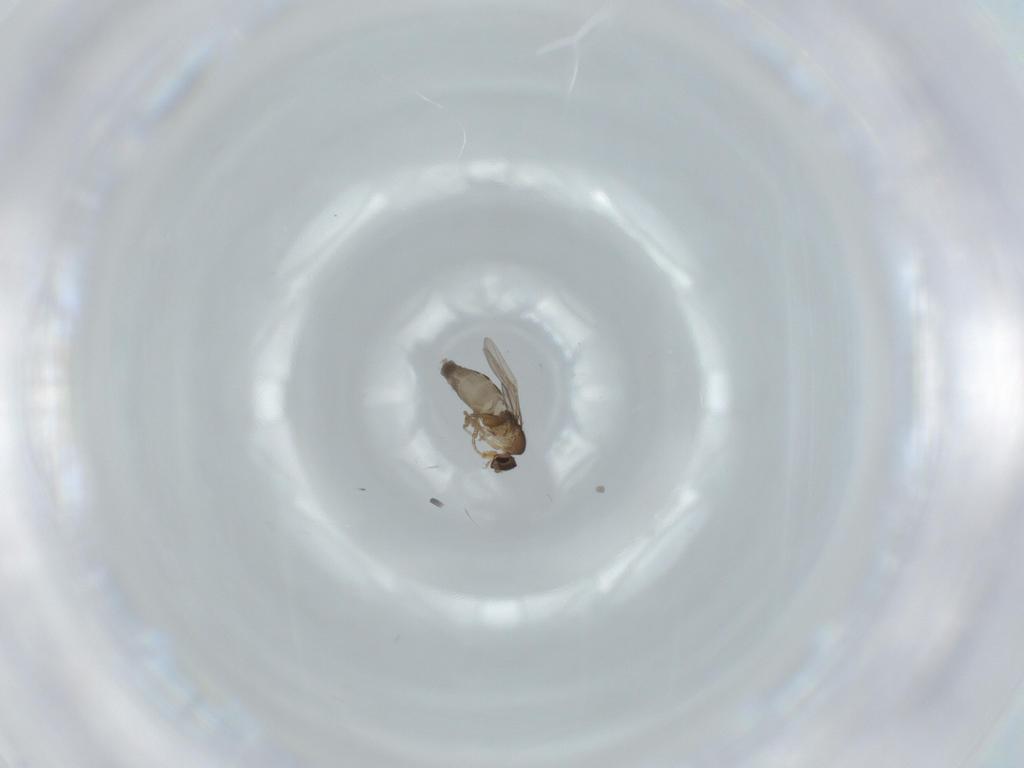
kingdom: Animalia
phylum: Arthropoda
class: Insecta
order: Diptera
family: Phoridae
